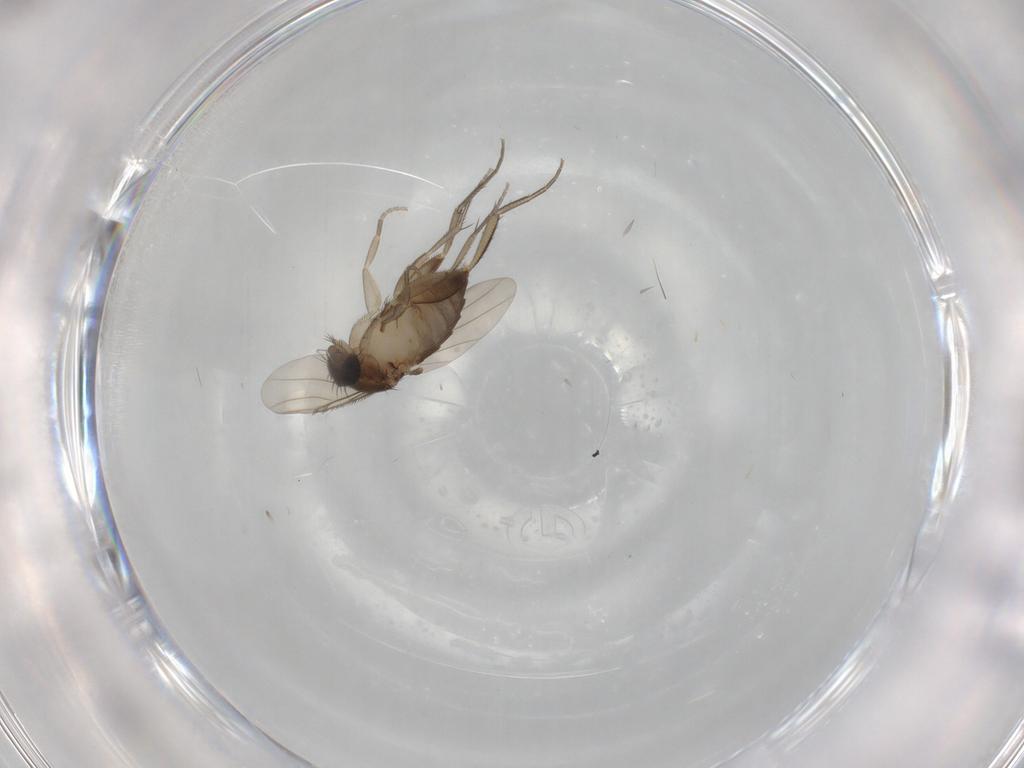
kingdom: Animalia
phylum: Arthropoda
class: Insecta
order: Diptera
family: Phoridae
